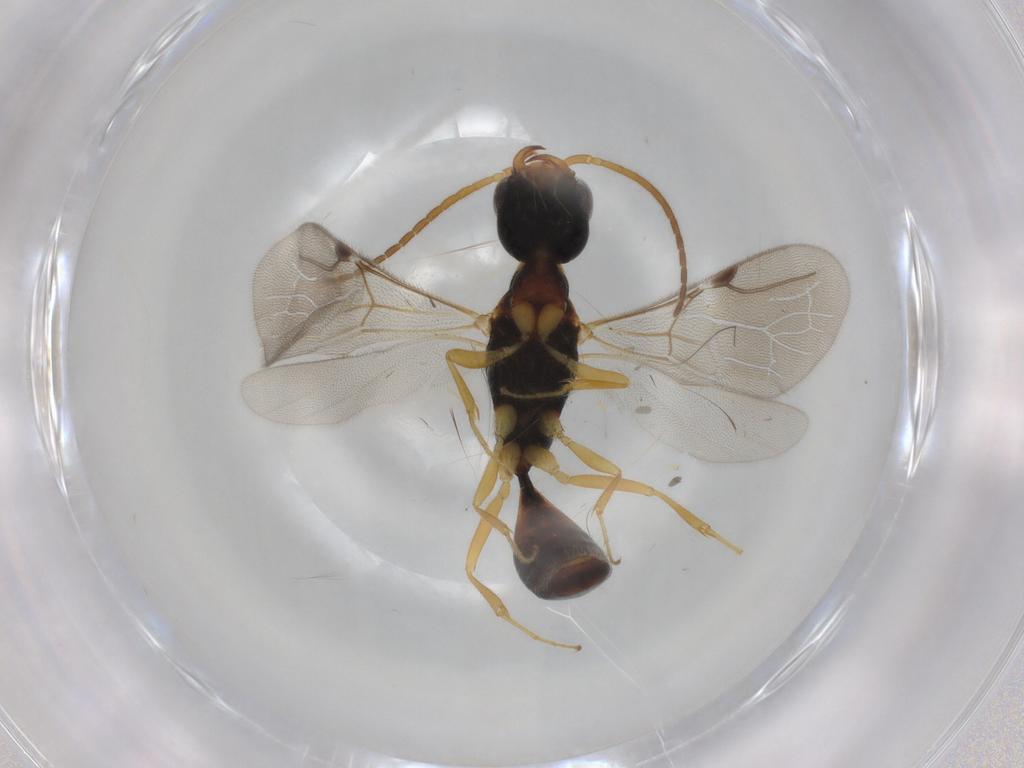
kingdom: Animalia
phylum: Arthropoda
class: Insecta
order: Hymenoptera
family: Bethylidae
